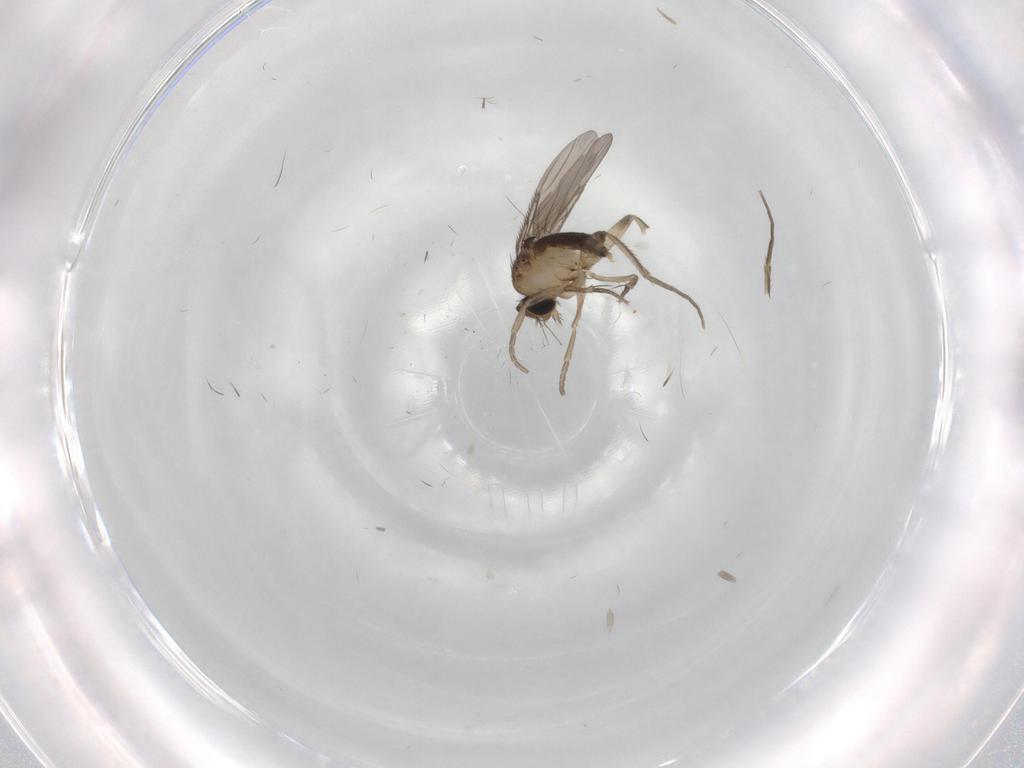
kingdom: Animalia
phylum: Arthropoda
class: Insecta
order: Diptera
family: Phoridae
